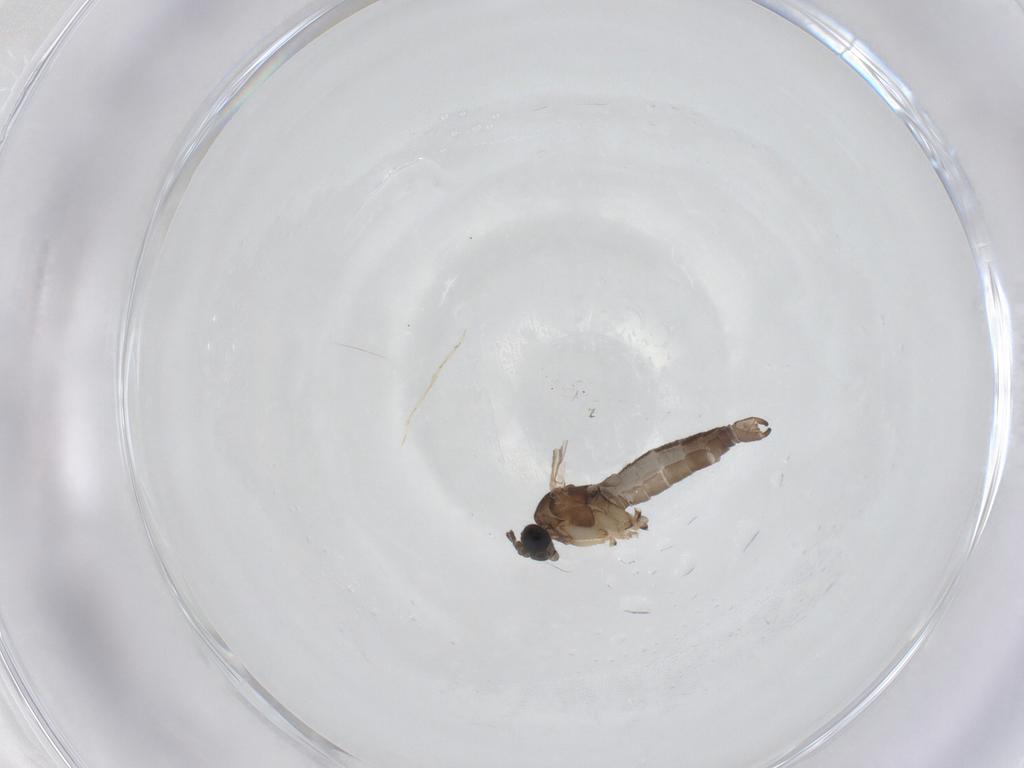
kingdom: Animalia
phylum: Arthropoda
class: Insecta
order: Diptera
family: Sciaridae
